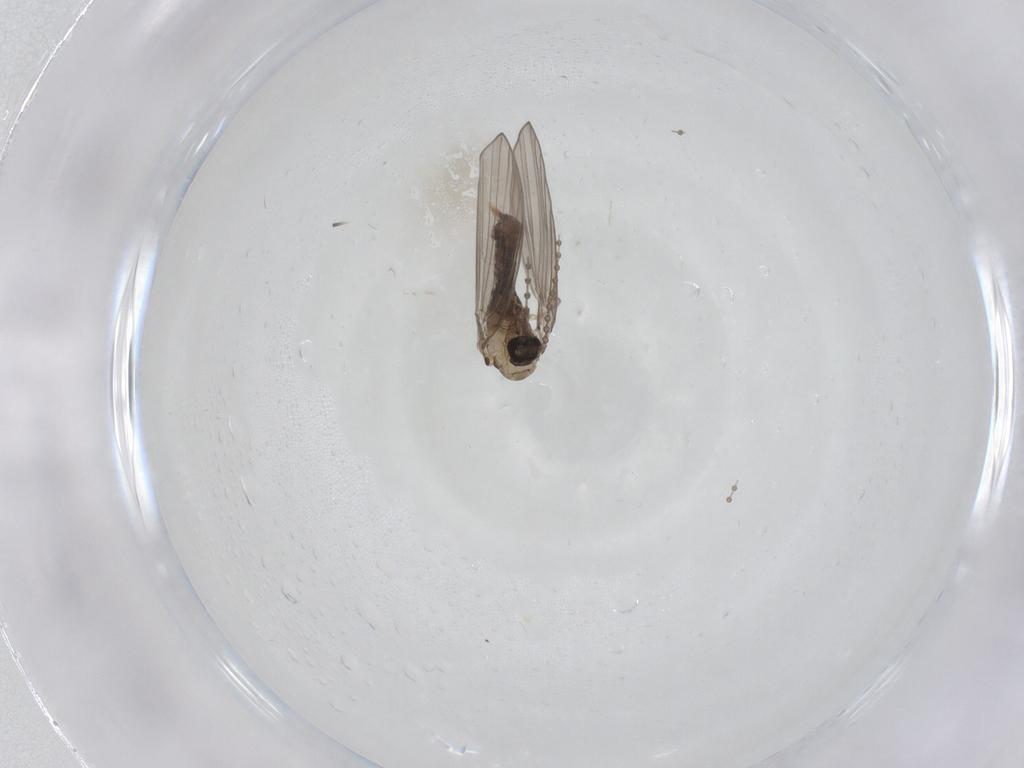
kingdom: Animalia
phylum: Arthropoda
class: Insecta
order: Diptera
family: Psychodidae
